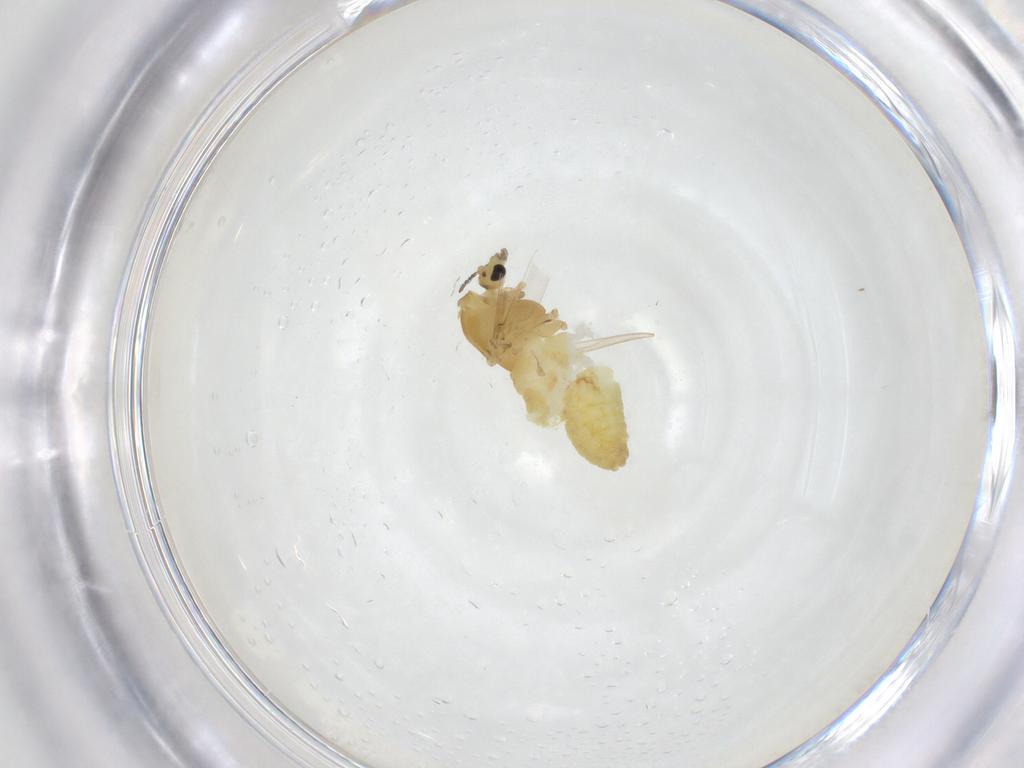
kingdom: Animalia
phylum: Arthropoda
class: Insecta
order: Diptera
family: Chironomidae
